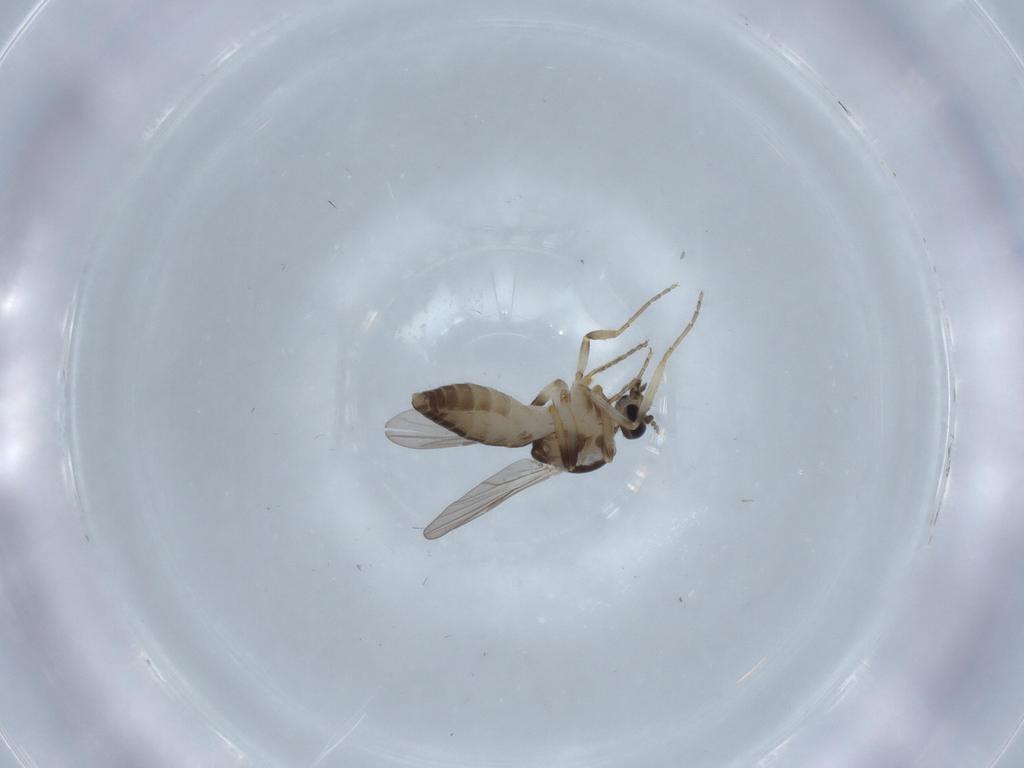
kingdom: Animalia
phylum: Arthropoda
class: Insecta
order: Diptera
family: Ceratopogonidae
